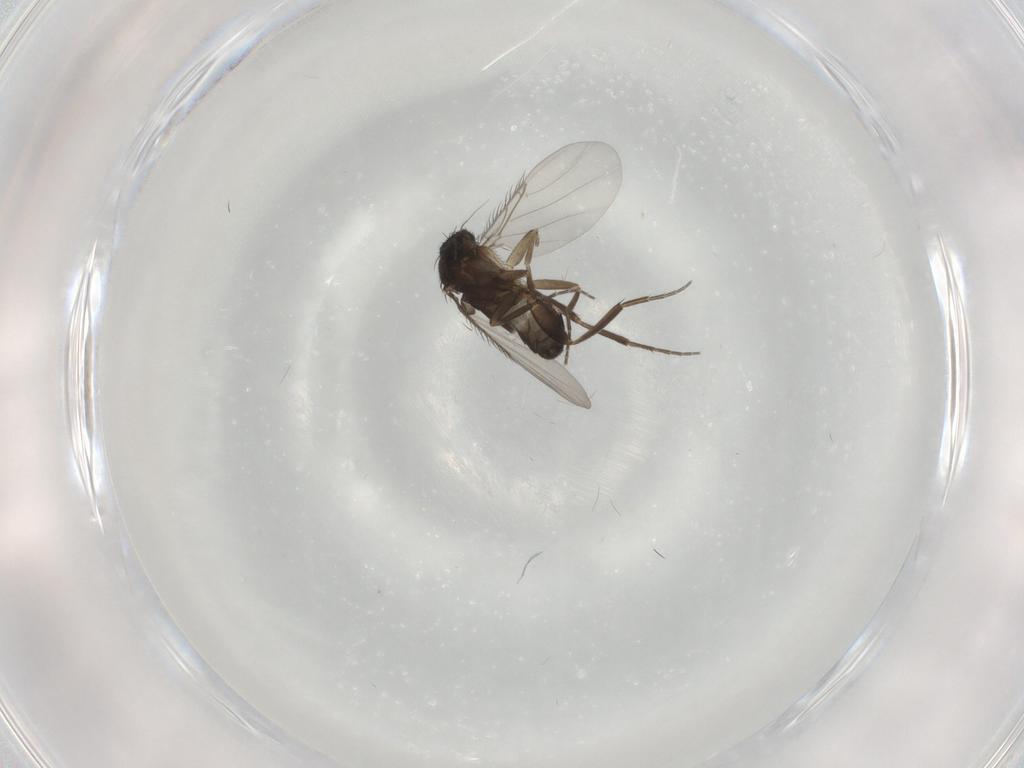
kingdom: Animalia
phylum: Arthropoda
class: Insecta
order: Diptera
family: Phoridae
